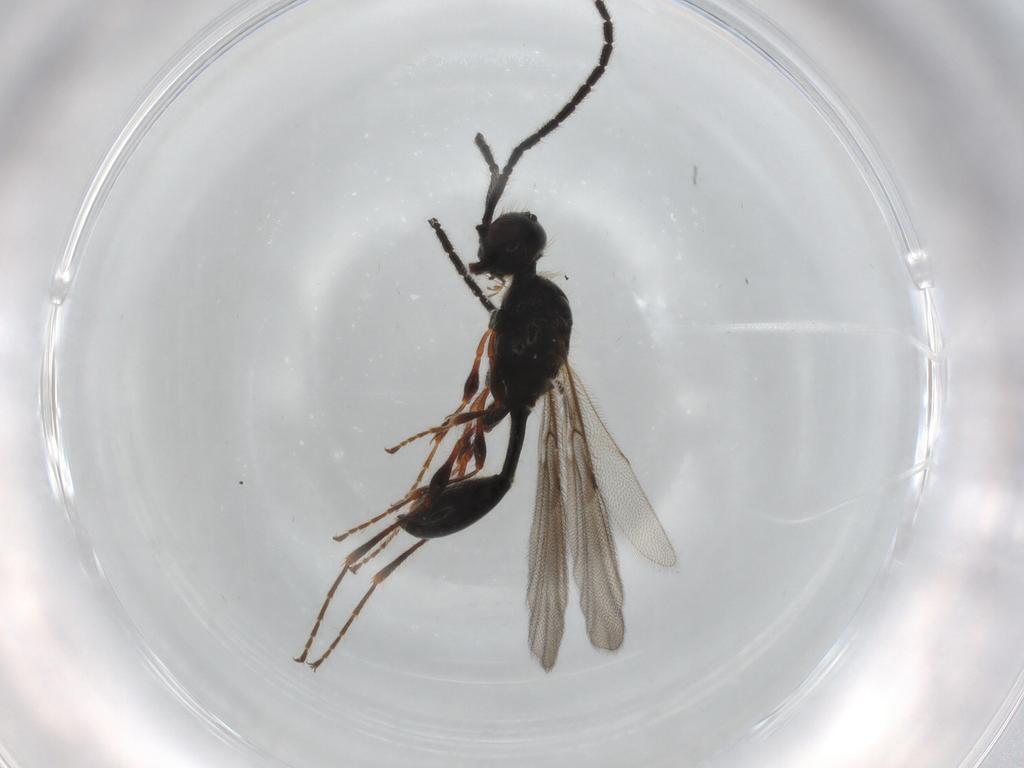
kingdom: Animalia
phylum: Arthropoda
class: Insecta
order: Hymenoptera
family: Diapriidae
